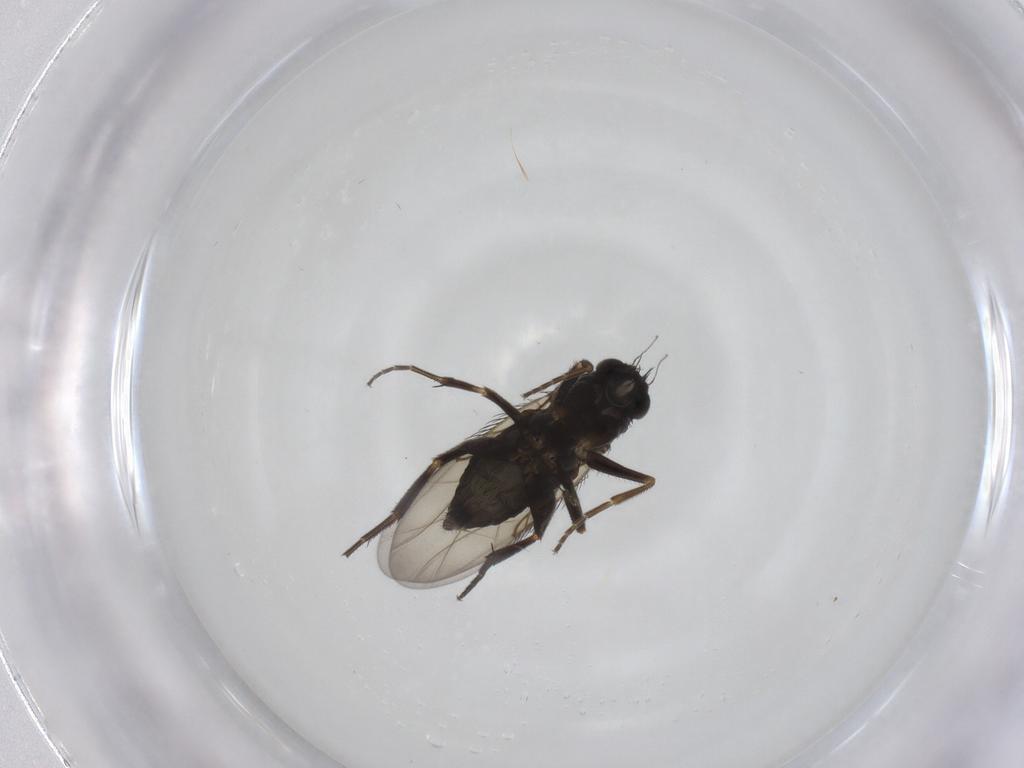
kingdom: Animalia
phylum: Arthropoda
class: Insecta
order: Diptera
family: Phoridae
